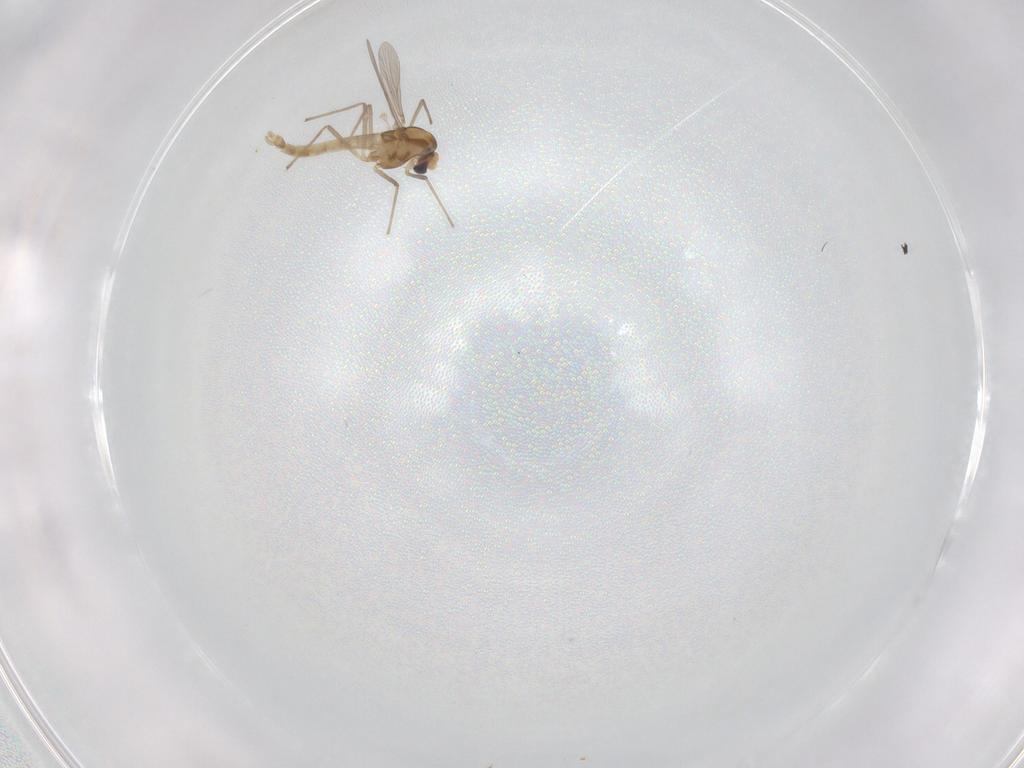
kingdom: Animalia
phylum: Arthropoda
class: Insecta
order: Diptera
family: Chironomidae
